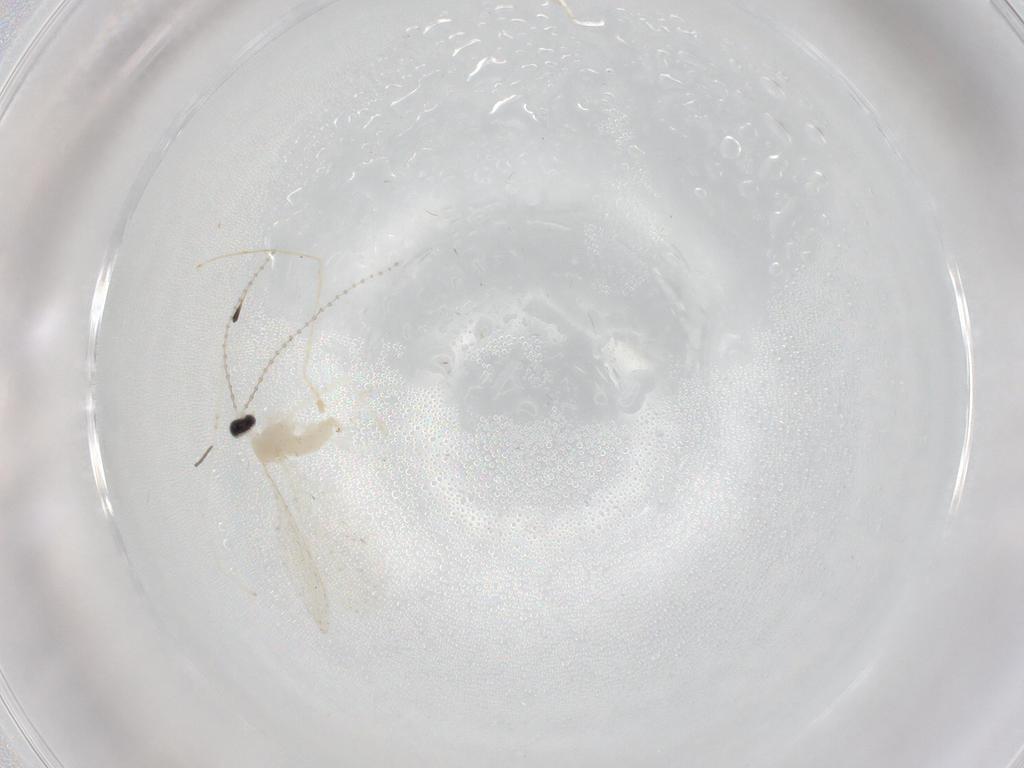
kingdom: Animalia
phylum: Arthropoda
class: Insecta
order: Diptera
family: Cecidomyiidae
